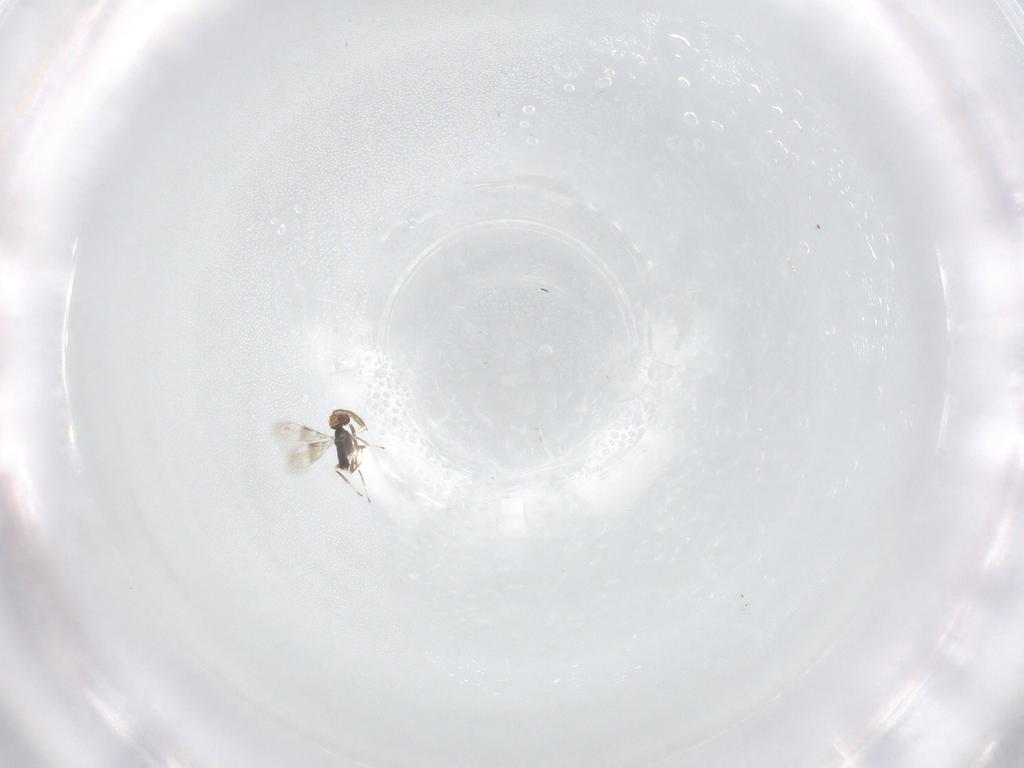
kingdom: Animalia
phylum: Arthropoda
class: Insecta
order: Hymenoptera
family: Azotidae
